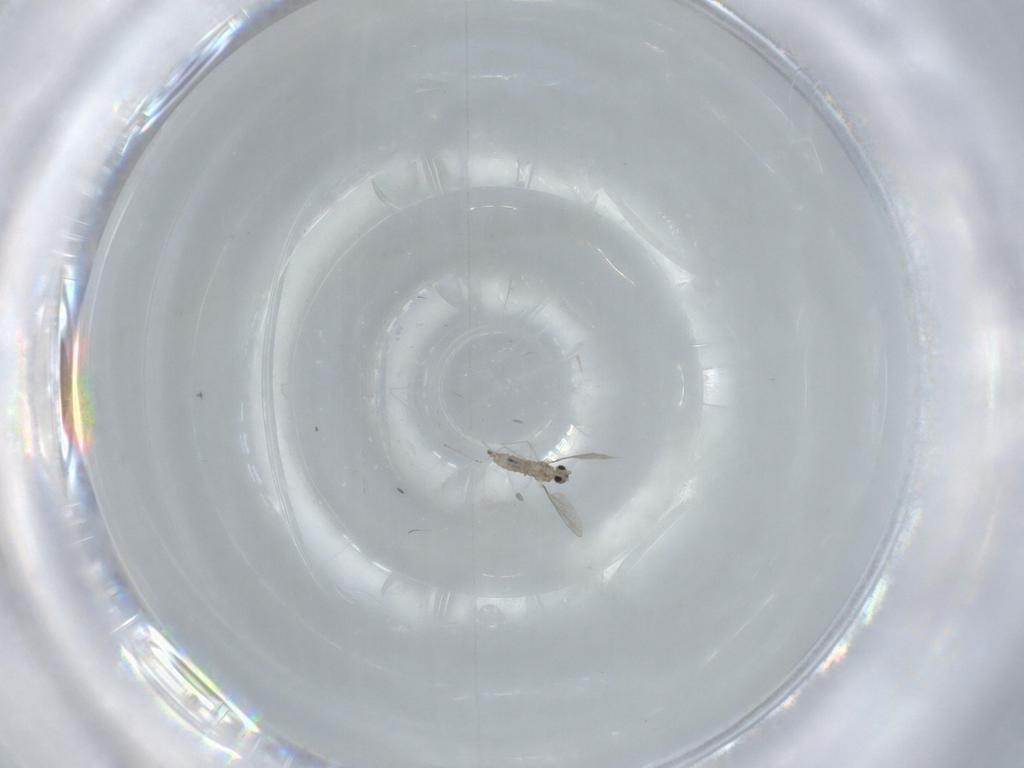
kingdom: Animalia
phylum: Arthropoda
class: Insecta
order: Diptera
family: Cecidomyiidae
